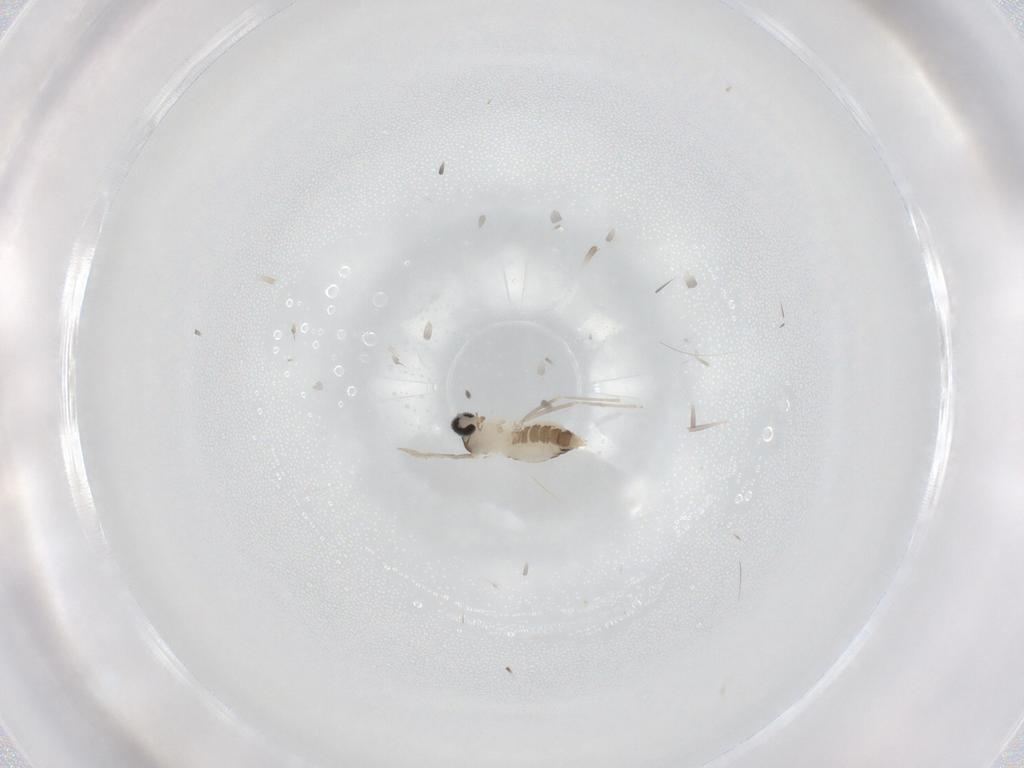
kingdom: Animalia
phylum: Arthropoda
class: Insecta
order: Diptera
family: Cecidomyiidae
